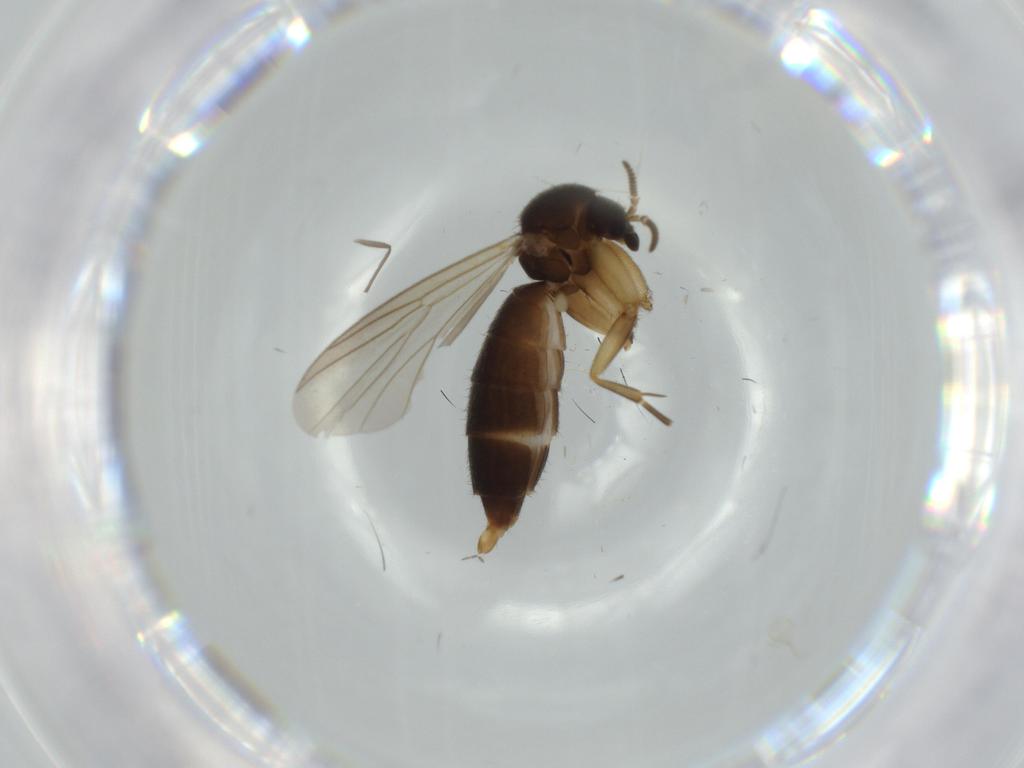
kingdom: Animalia
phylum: Arthropoda
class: Insecta
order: Diptera
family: Mycetophilidae
